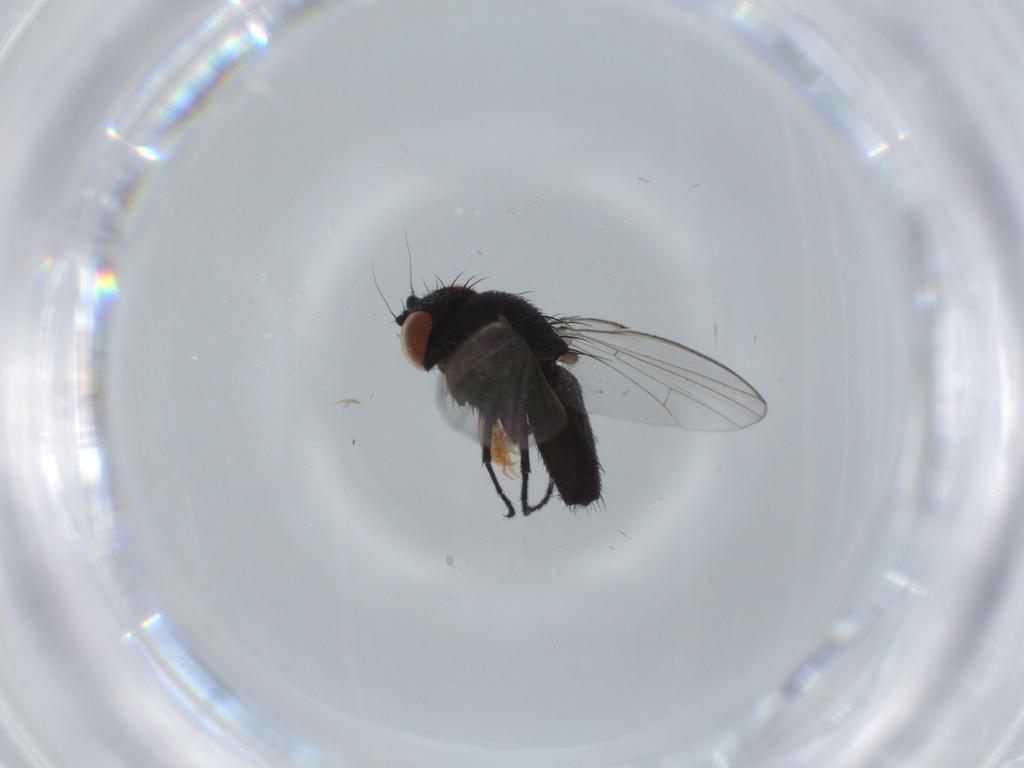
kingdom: Animalia
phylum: Arthropoda
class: Insecta
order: Diptera
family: Milichiidae
